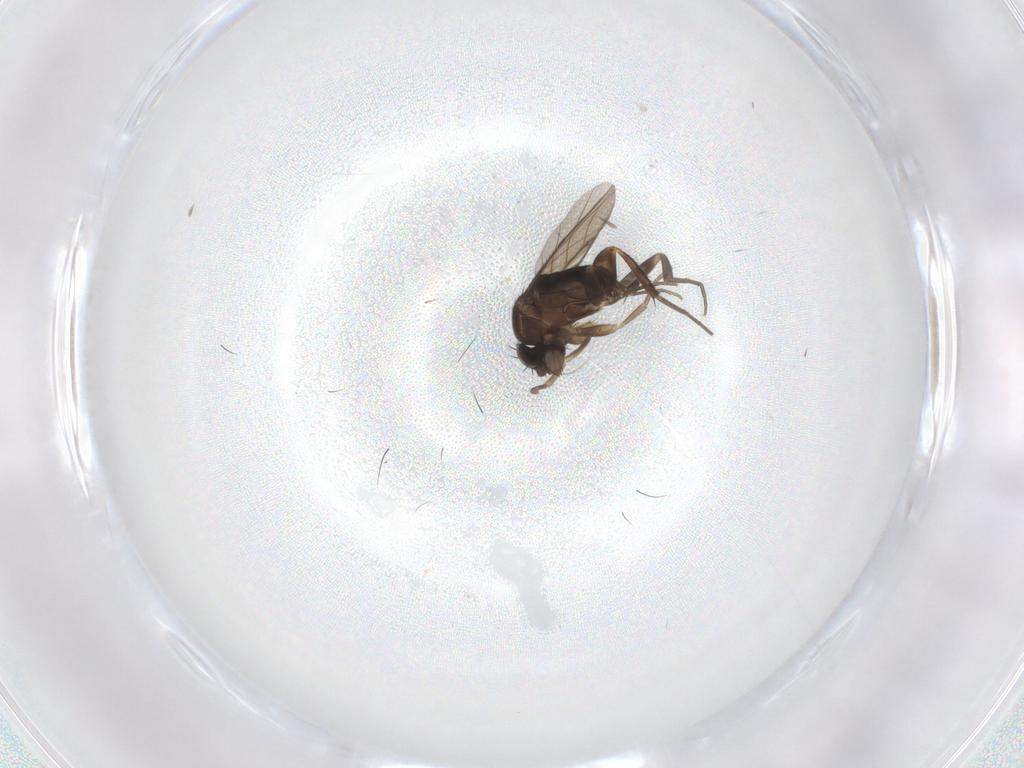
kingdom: Animalia
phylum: Arthropoda
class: Insecta
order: Diptera
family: Phoridae
